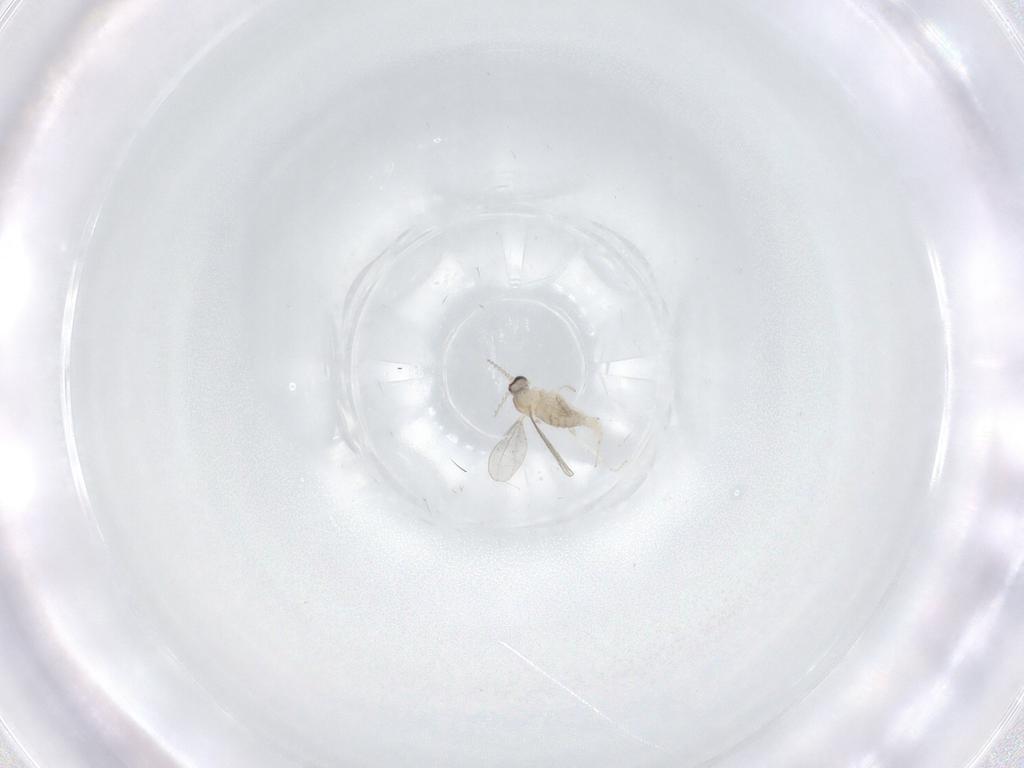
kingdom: Animalia
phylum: Arthropoda
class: Insecta
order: Diptera
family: Cecidomyiidae
